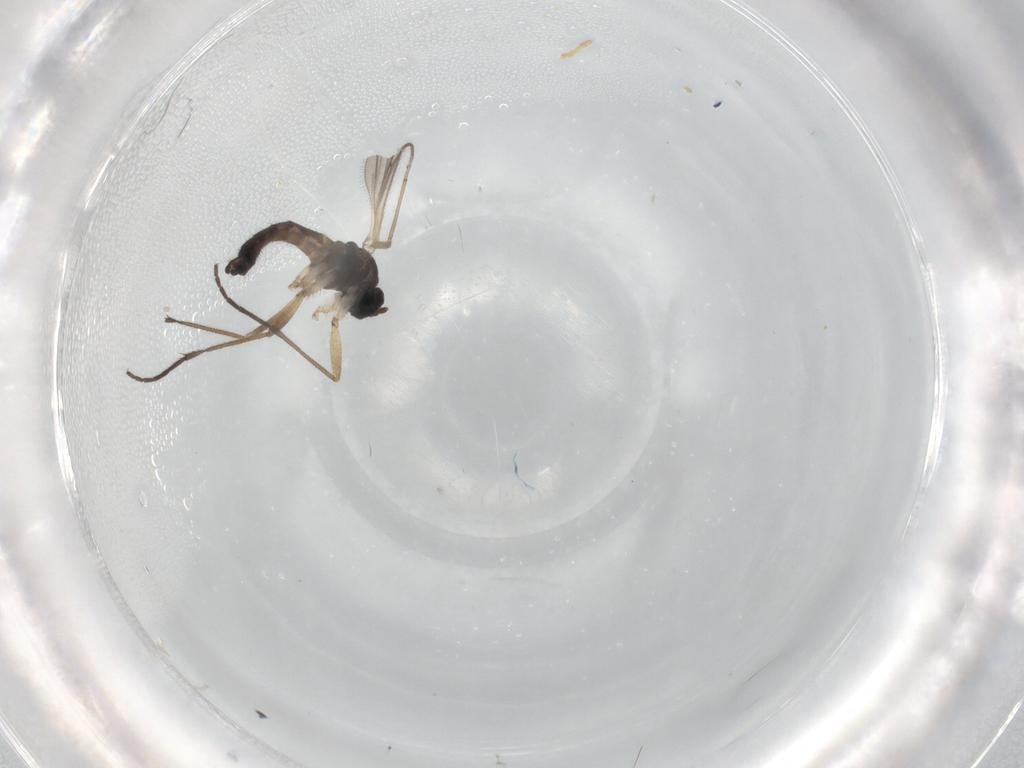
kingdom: Animalia
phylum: Arthropoda
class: Insecta
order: Diptera
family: Sciaridae
